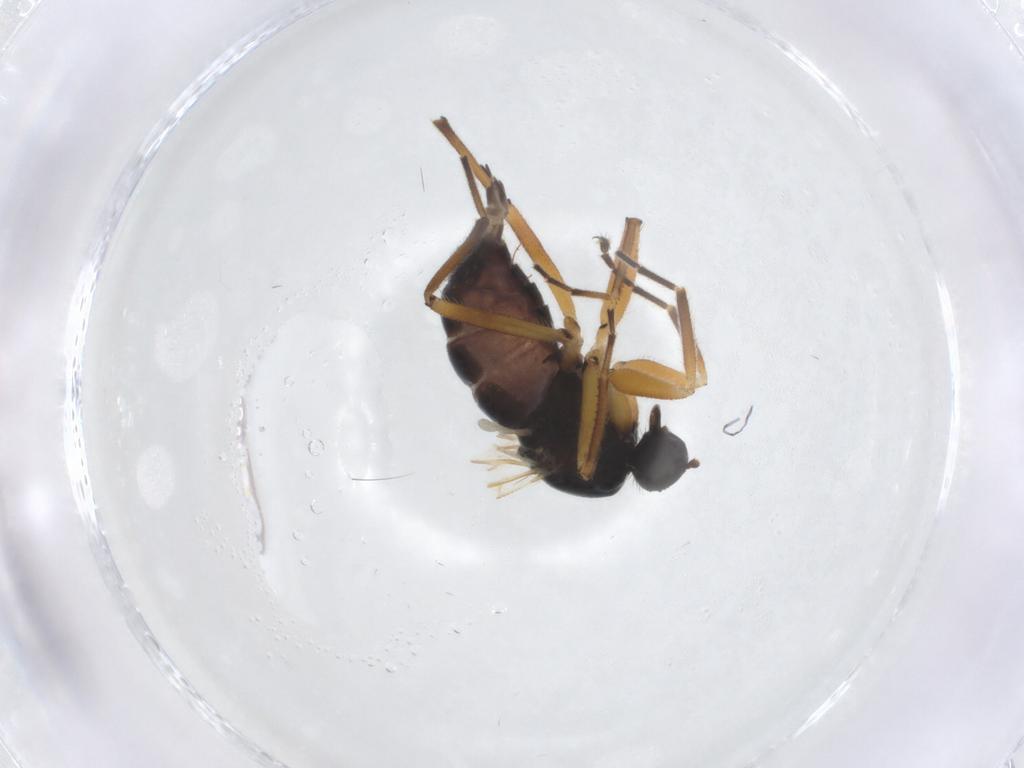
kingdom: Animalia
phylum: Arthropoda
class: Insecta
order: Diptera
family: Hybotidae
